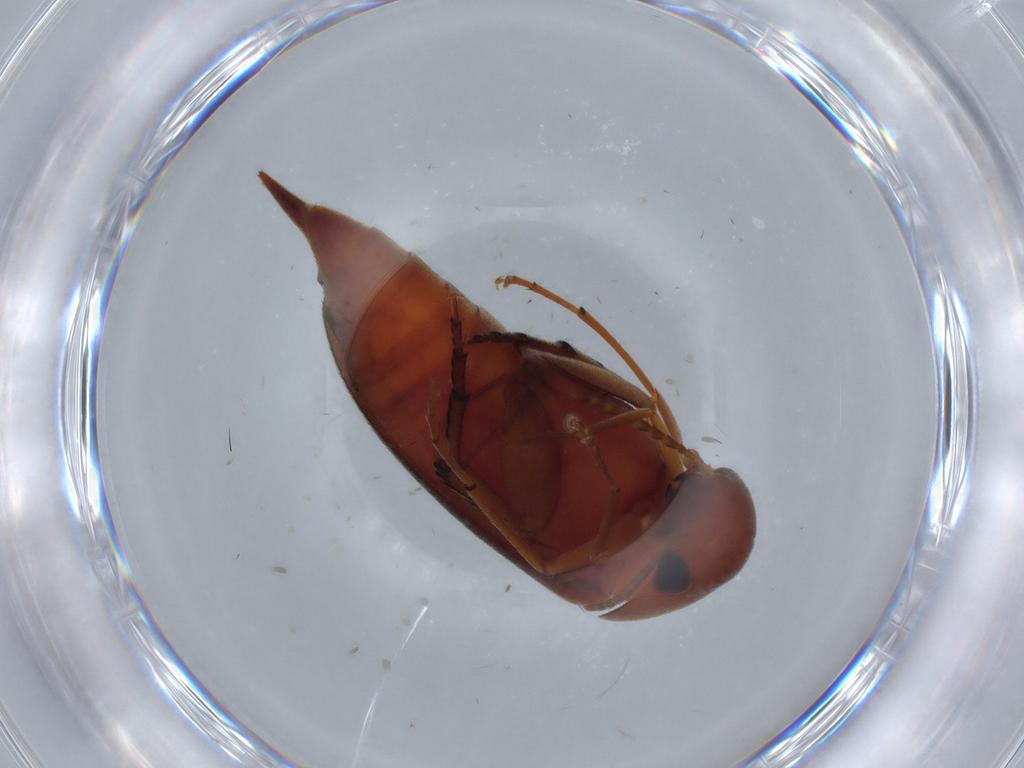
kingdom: Animalia
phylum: Arthropoda
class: Insecta
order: Coleoptera
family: Mordellidae
